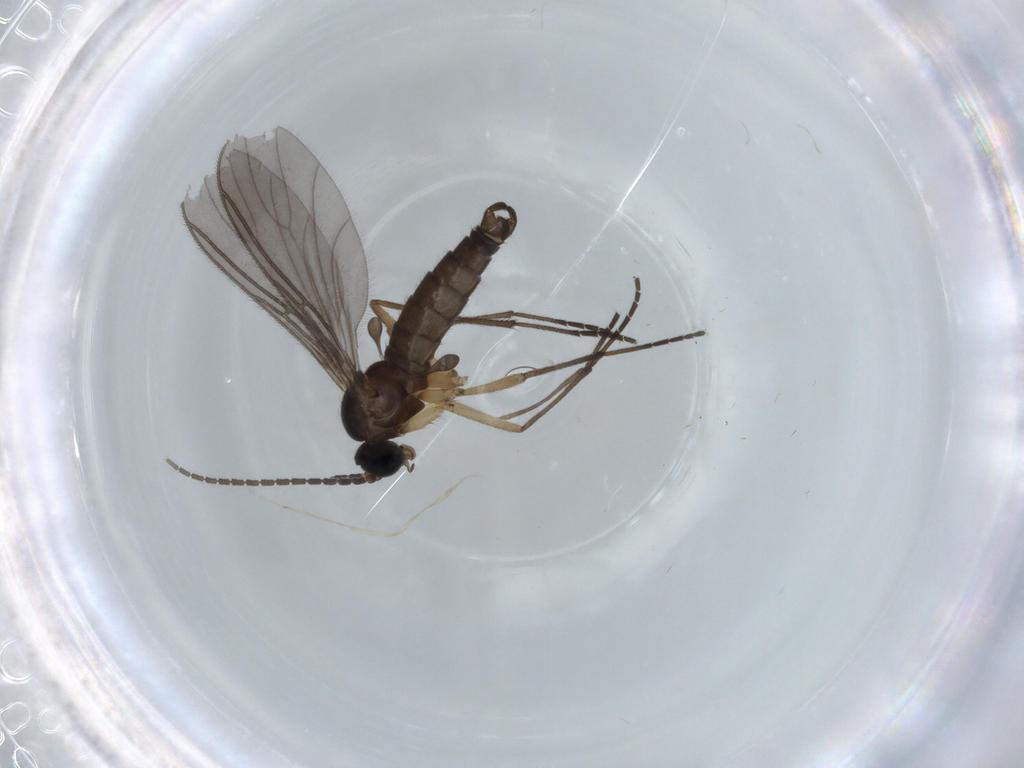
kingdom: Animalia
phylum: Arthropoda
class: Insecta
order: Diptera
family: Sciaridae
